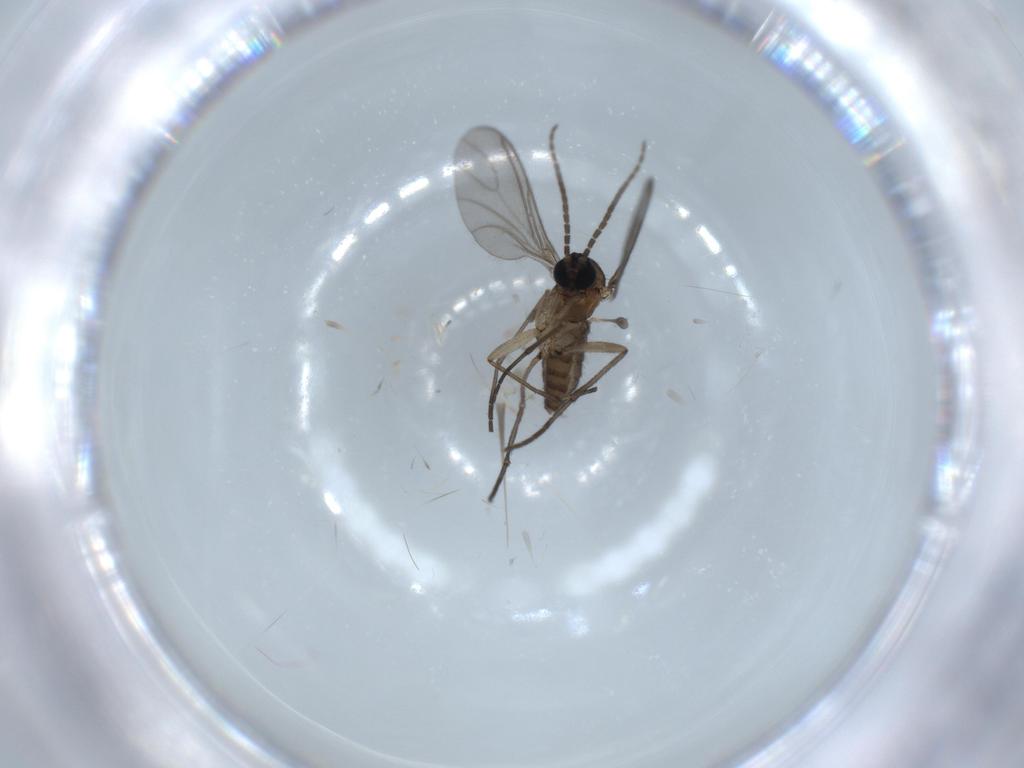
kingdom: Animalia
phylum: Arthropoda
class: Insecta
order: Diptera
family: Sciaridae
